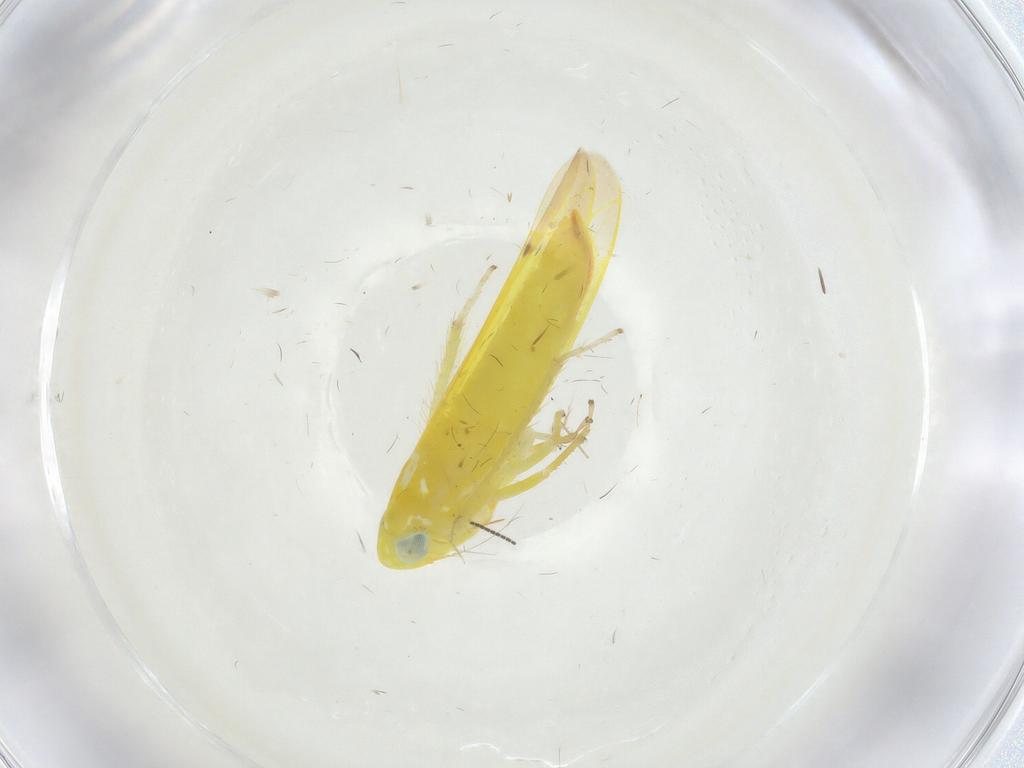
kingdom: Animalia
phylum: Arthropoda
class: Insecta
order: Hemiptera
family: Cicadellidae
